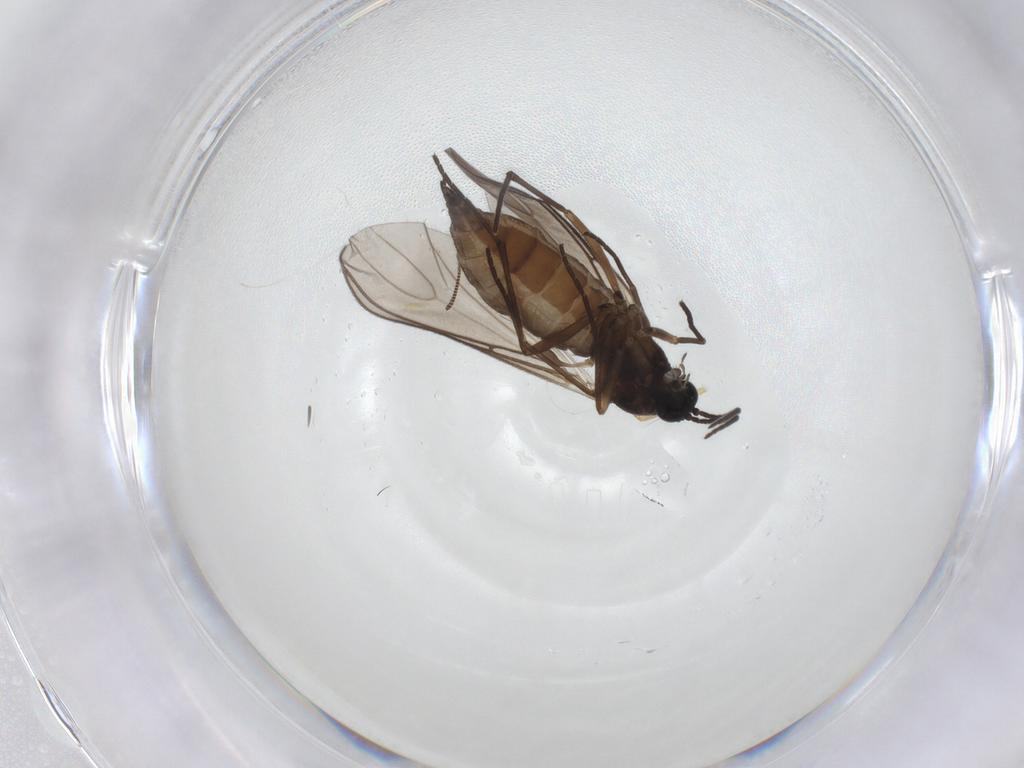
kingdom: Animalia
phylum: Arthropoda
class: Insecta
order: Diptera
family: Sciaridae
